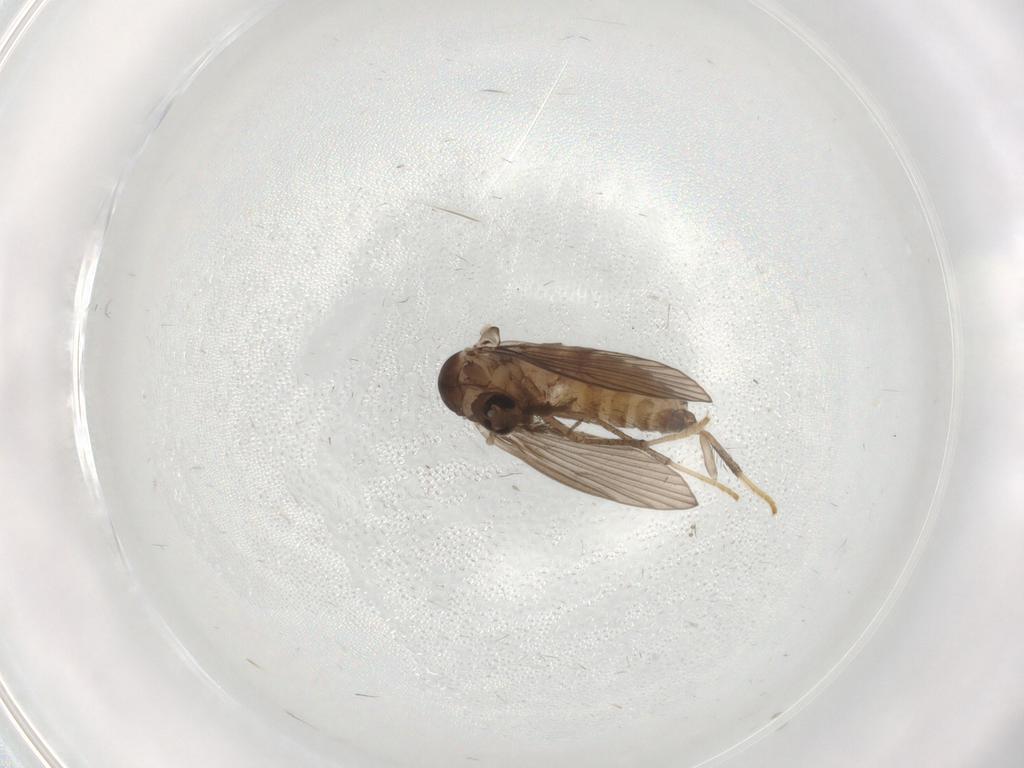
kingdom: Animalia
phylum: Arthropoda
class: Insecta
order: Diptera
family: Psychodidae
